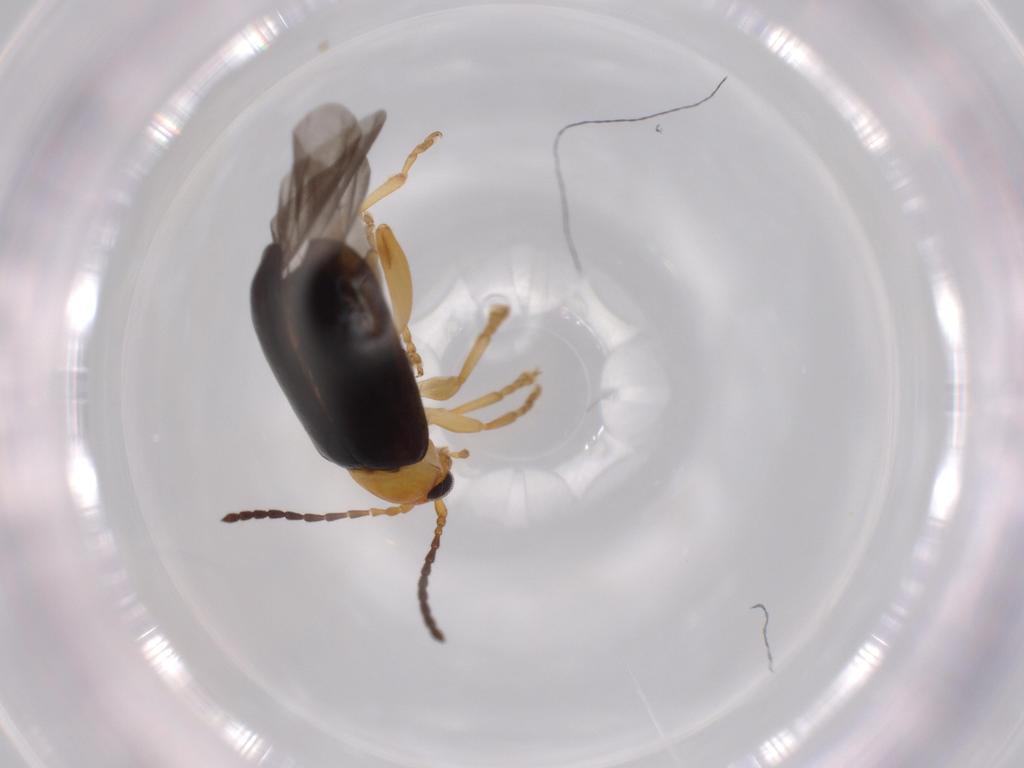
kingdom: Animalia
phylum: Arthropoda
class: Insecta
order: Coleoptera
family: Chrysomelidae
